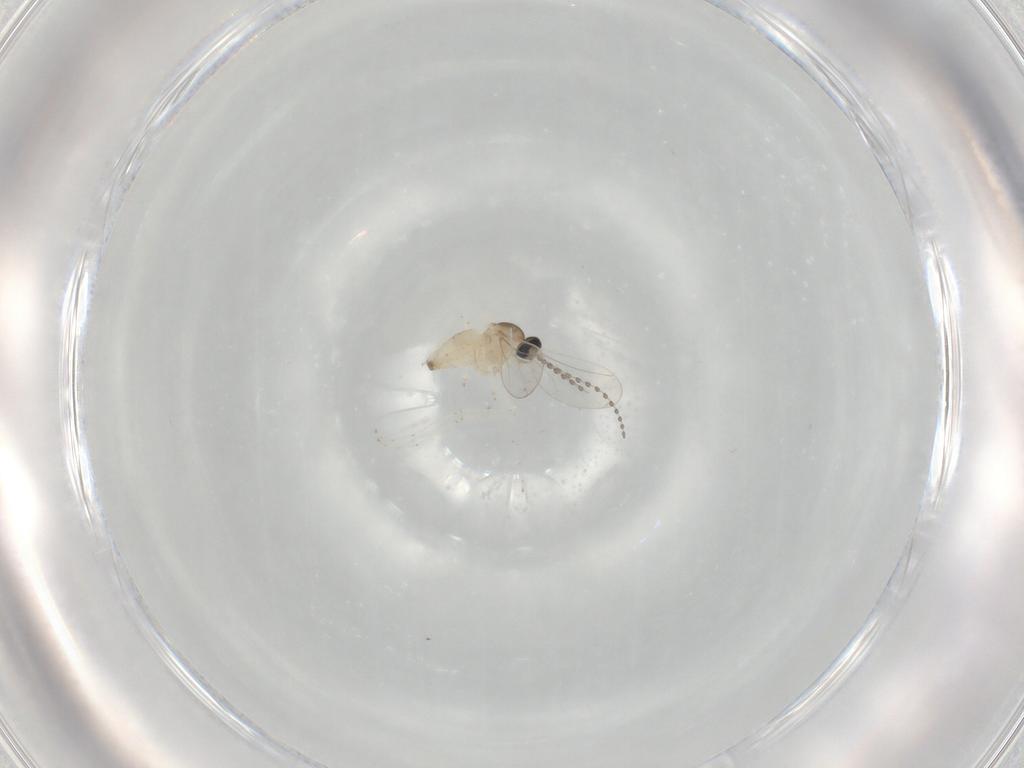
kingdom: Animalia
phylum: Arthropoda
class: Insecta
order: Diptera
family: Cecidomyiidae
